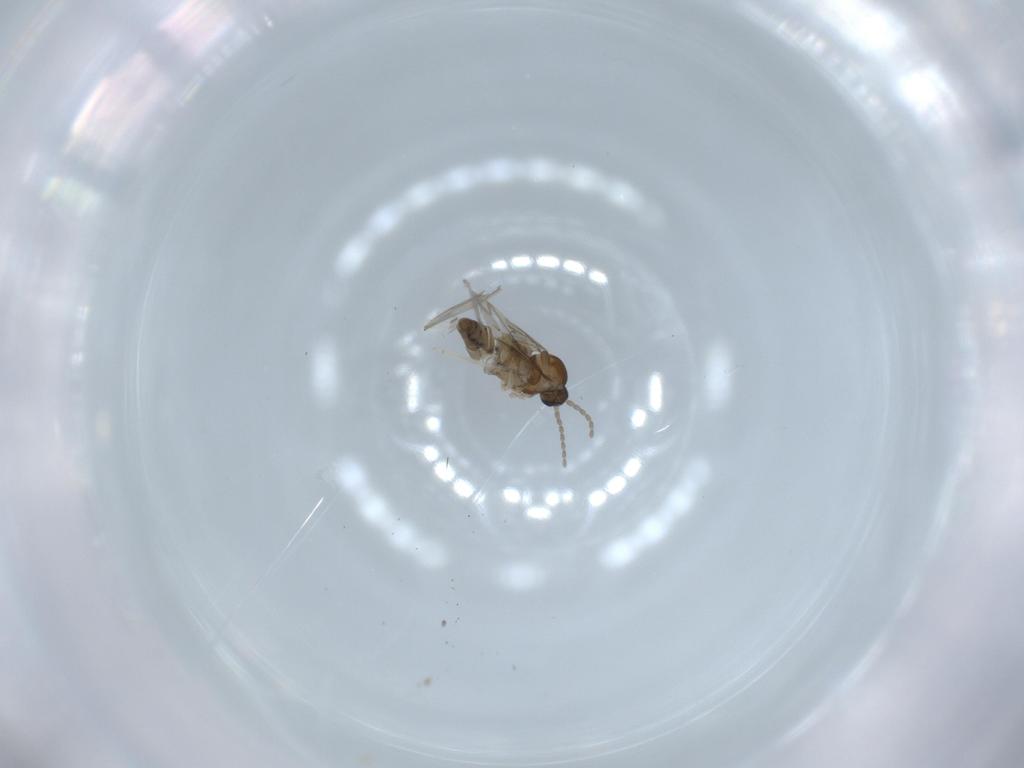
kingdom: Animalia
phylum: Arthropoda
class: Insecta
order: Diptera
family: Cecidomyiidae
